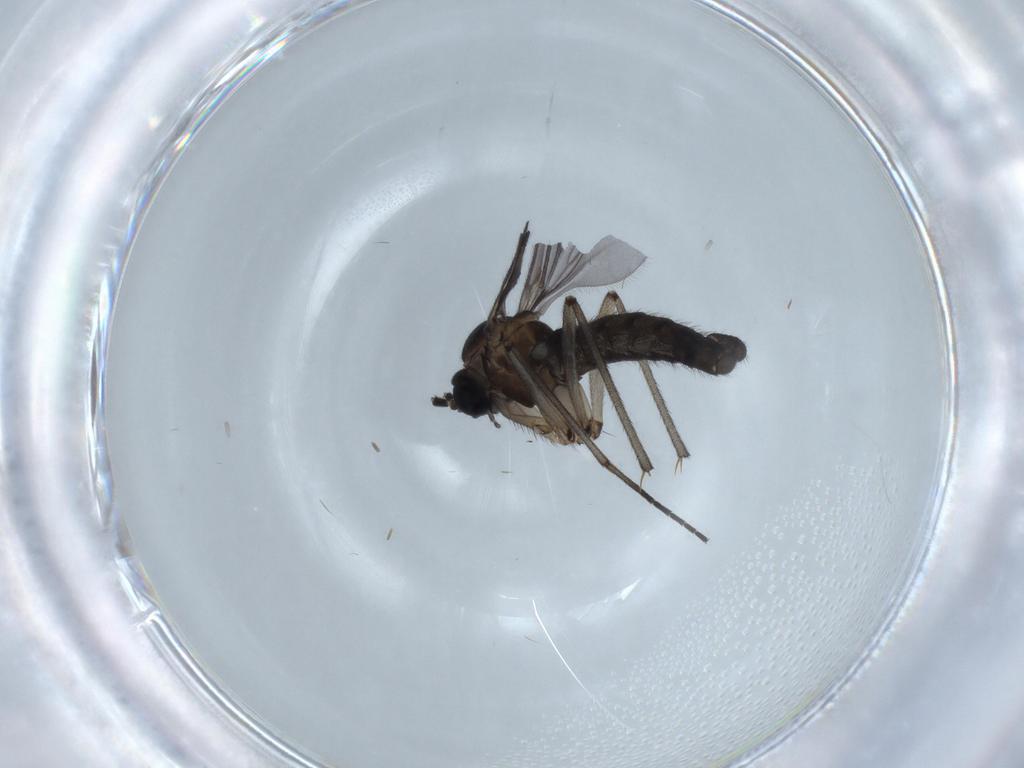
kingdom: Animalia
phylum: Arthropoda
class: Insecta
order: Diptera
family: Sciaridae
